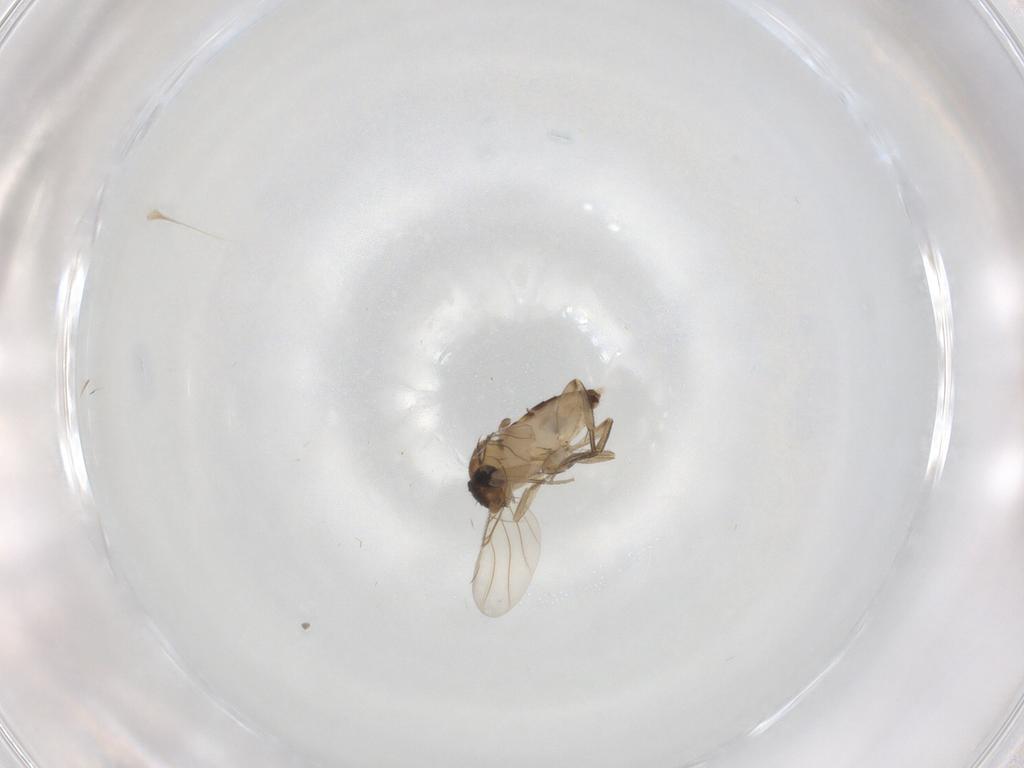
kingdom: Animalia
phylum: Arthropoda
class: Insecta
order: Diptera
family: Phoridae
